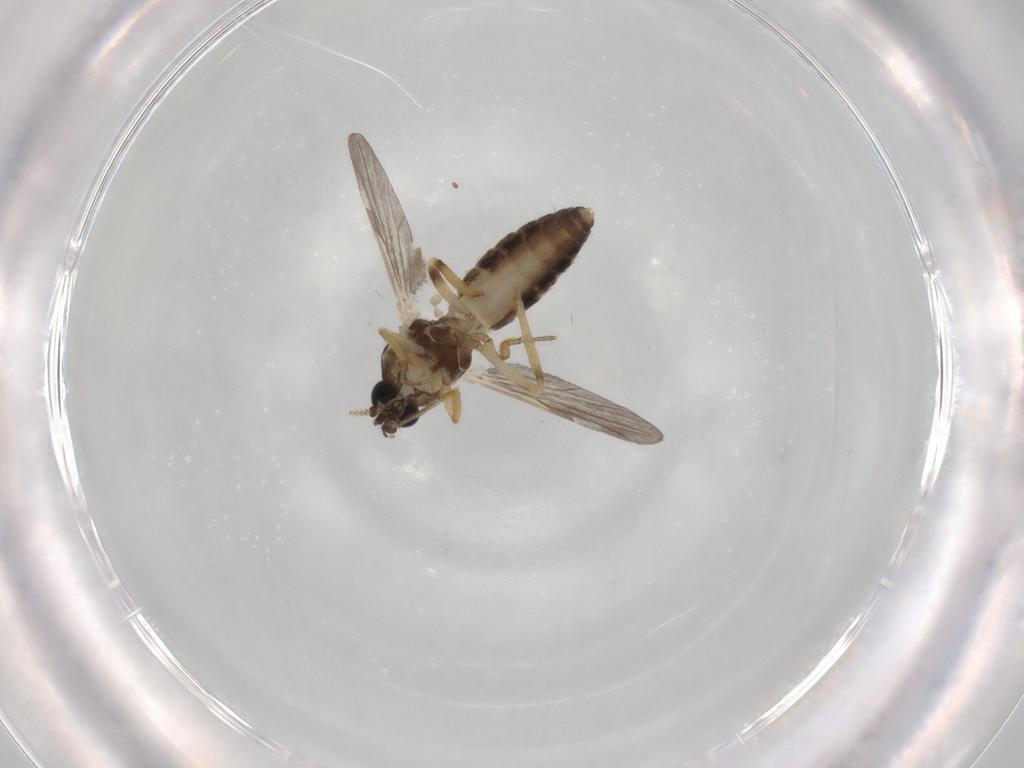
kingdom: Animalia
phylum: Arthropoda
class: Insecta
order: Diptera
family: Ceratopogonidae
